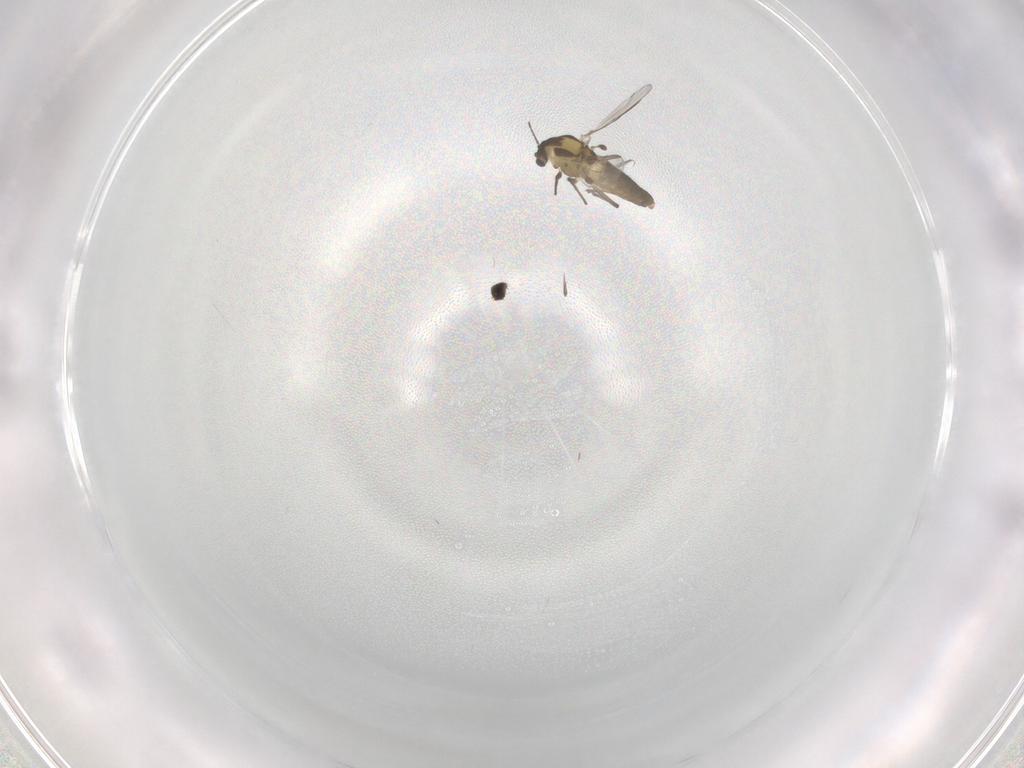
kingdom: Animalia
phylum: Arthropoda
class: Insecta
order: Diptera
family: Chironomidae
